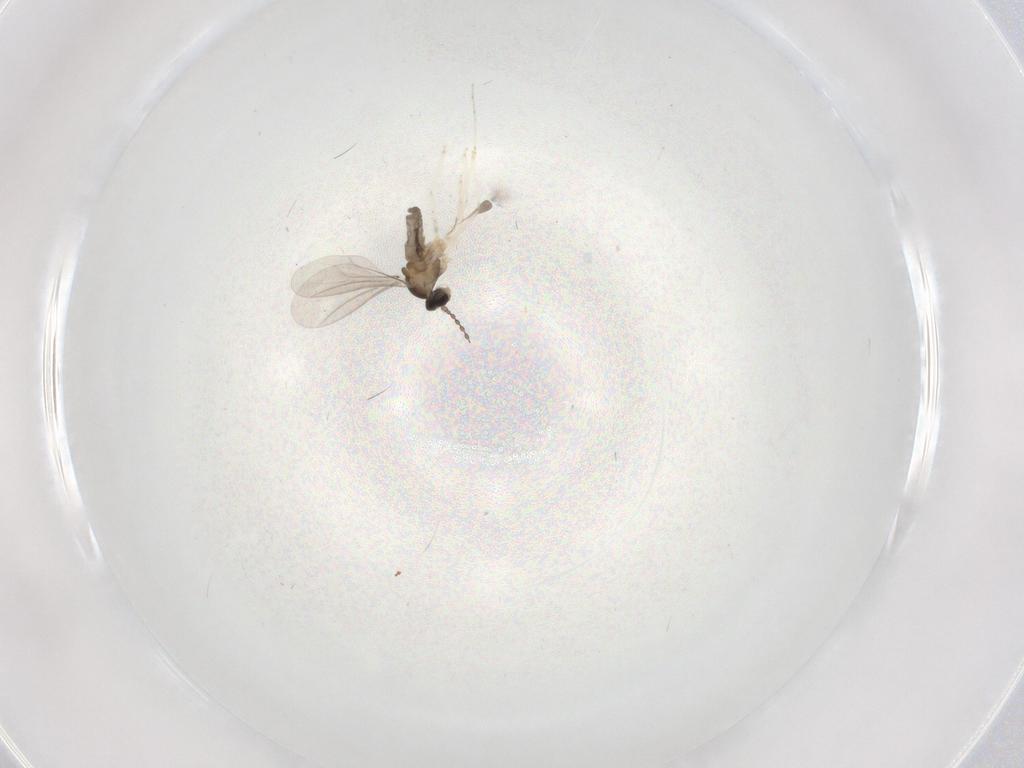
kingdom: Animalia
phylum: Arthropoda
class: Insecta
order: Diptera
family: Cecidomyiidae
